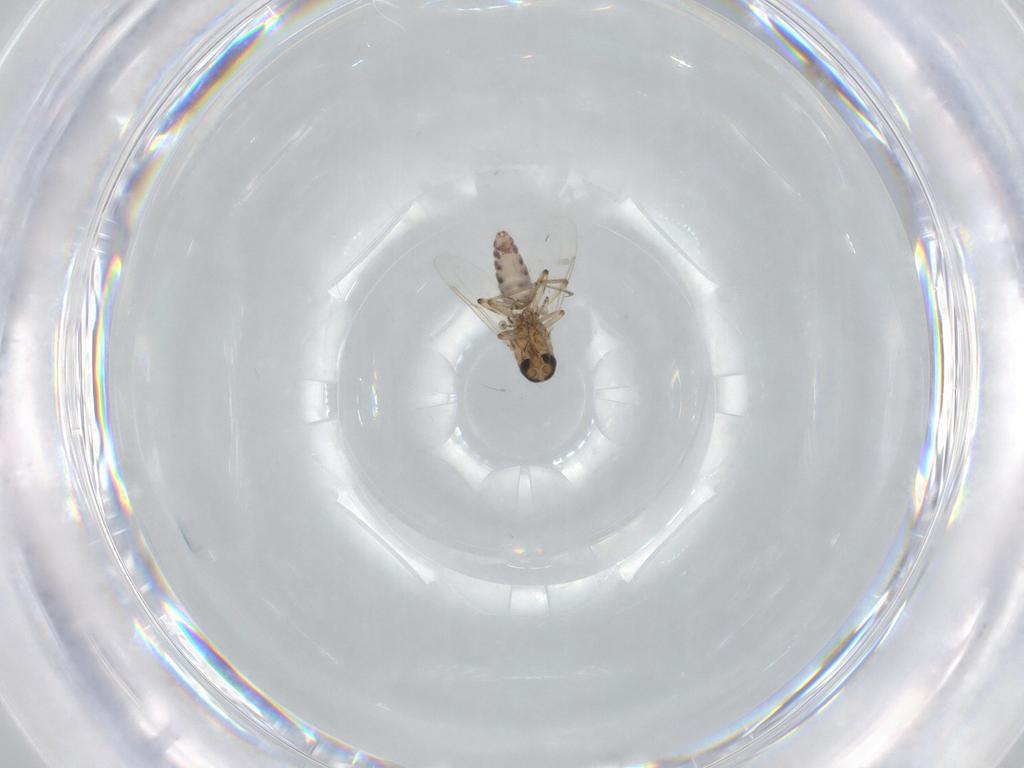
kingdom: Animalia
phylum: Arthropoda
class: Insecta
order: Diptera
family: Ceratopogonidae
